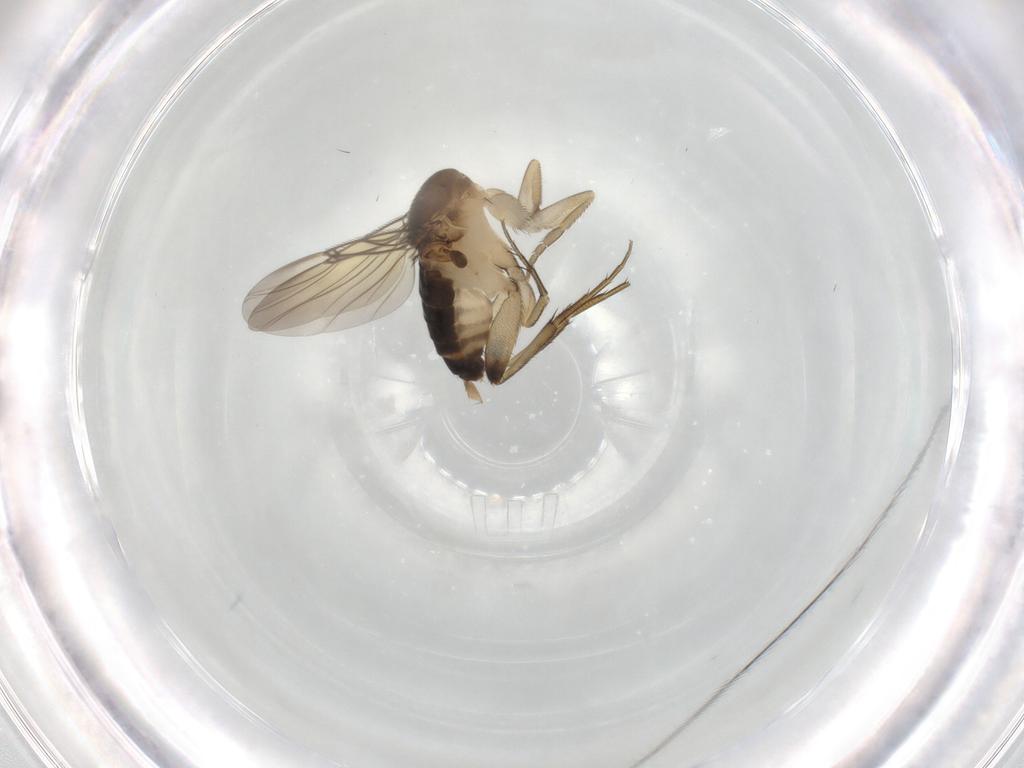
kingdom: Animalia
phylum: Arthropoda
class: Insecta
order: Diptera
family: Phoridae
